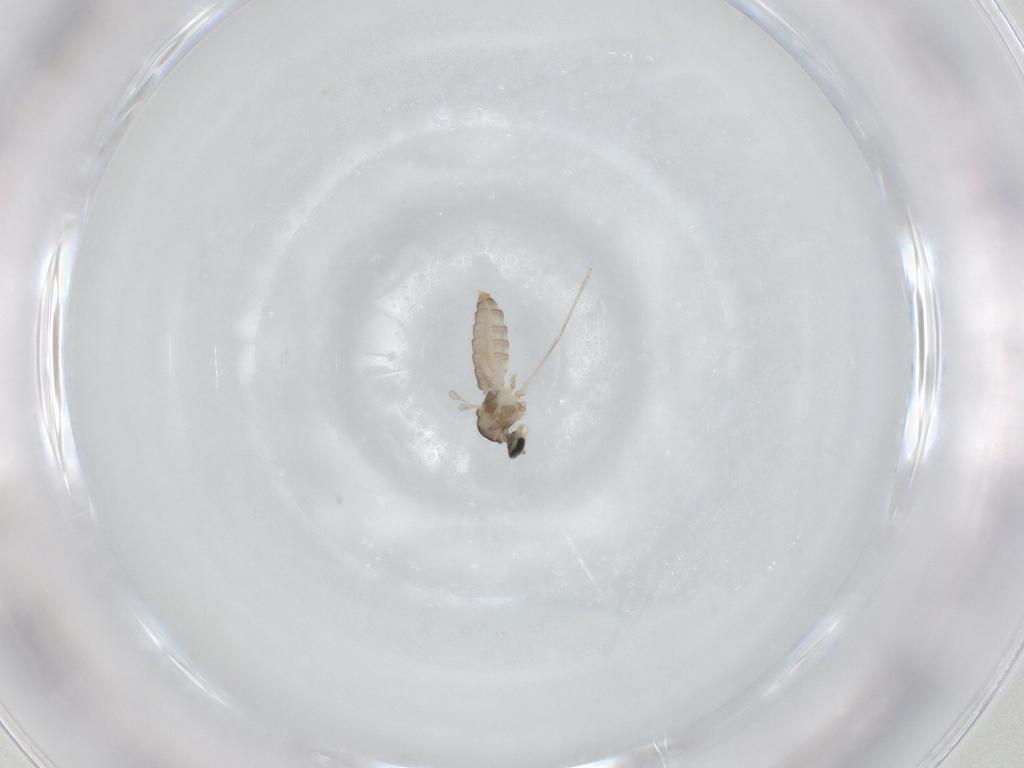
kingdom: Animalia
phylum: Arthropoda
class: Insecta
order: Diptera
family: Cecidomyiidae
